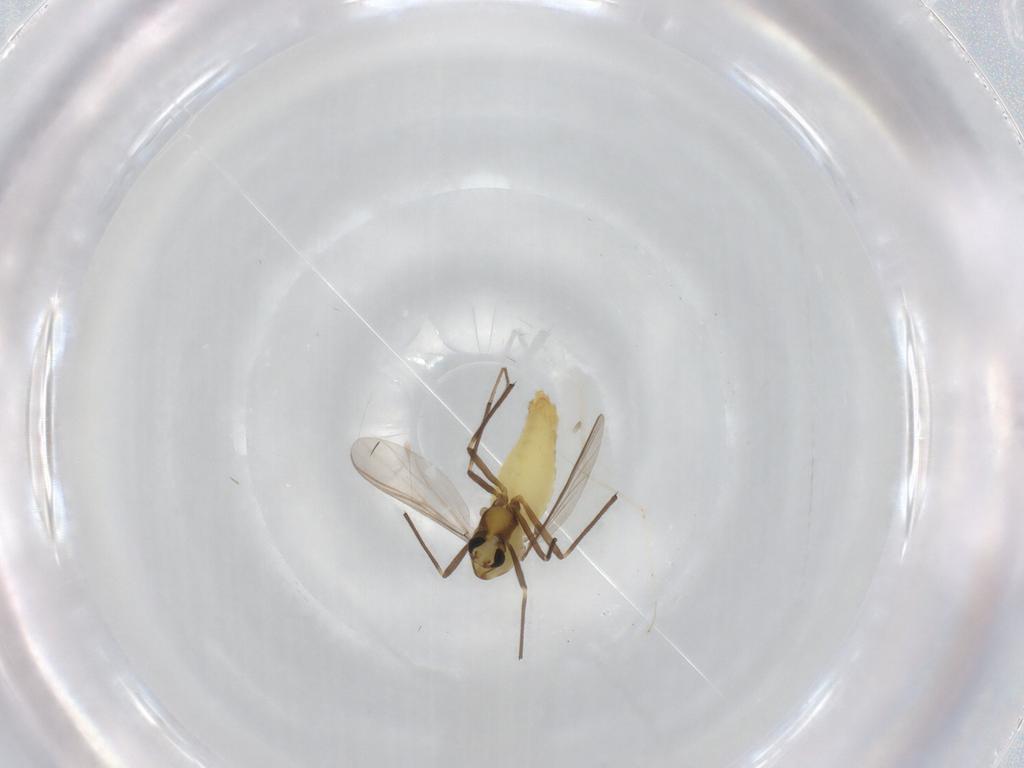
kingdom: Animalia
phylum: Arthropoda
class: Insecta
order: Diptera
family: Chironomidae
